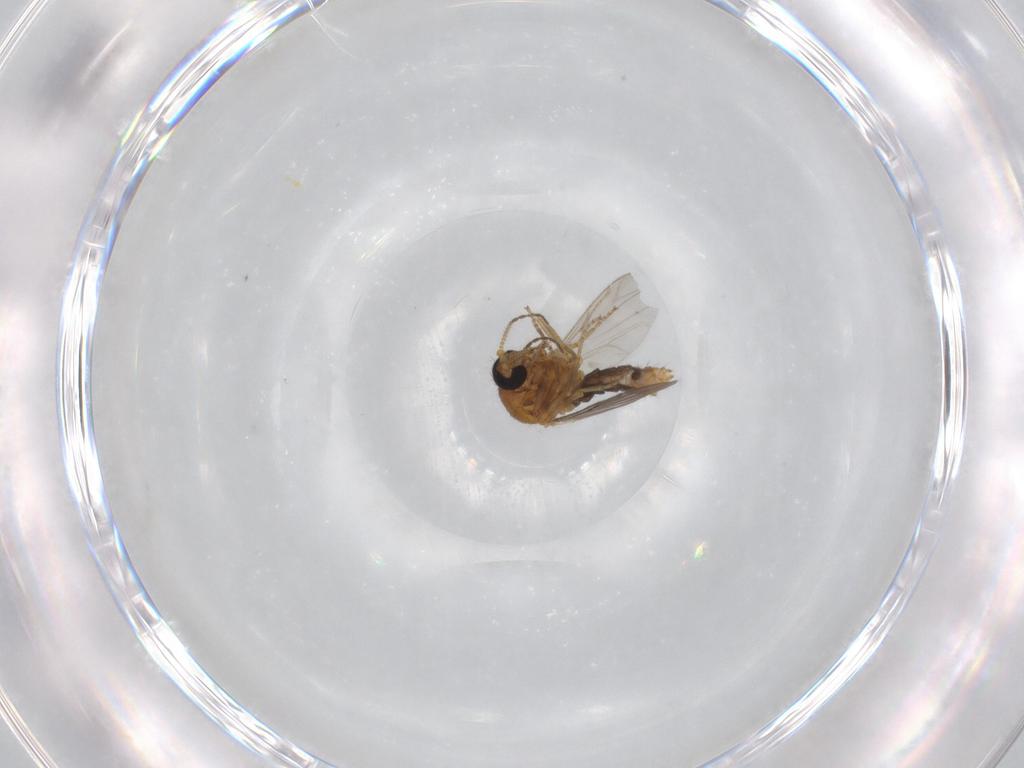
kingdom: Animalia
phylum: Arthropoda
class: Insecta
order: Diptera
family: Ceratopogonidae
